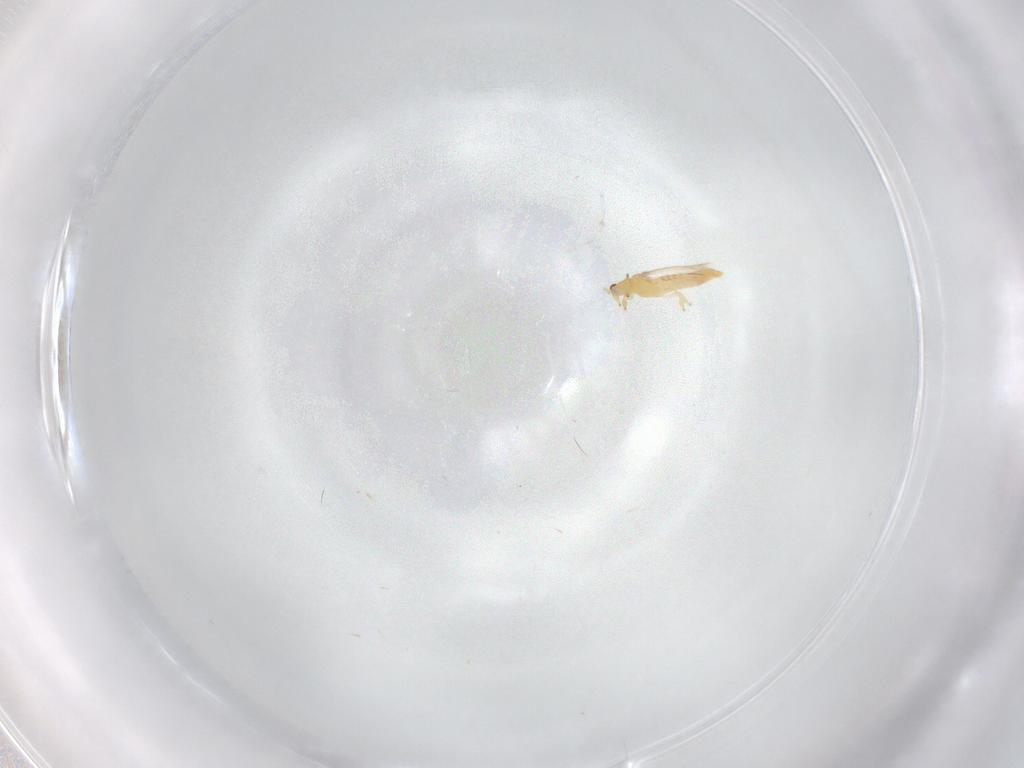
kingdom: Animalia
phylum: Arthropoda
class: Insecta
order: Thysanoptera
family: Thripidae
